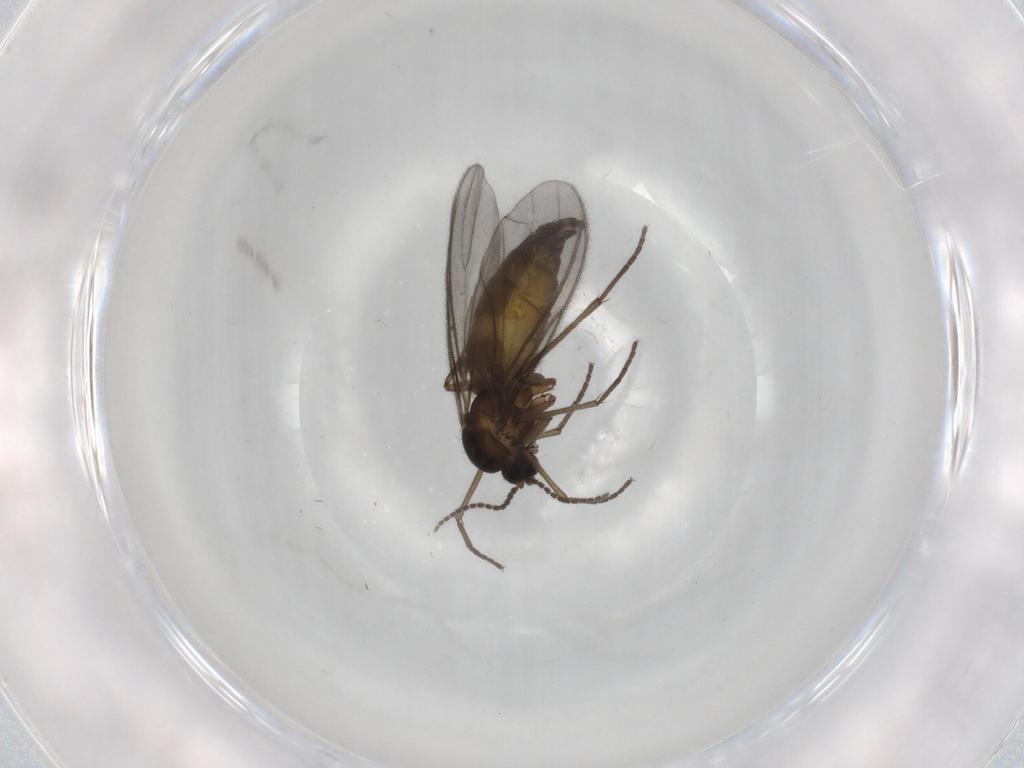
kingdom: Animalia
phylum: Arthropoda
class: Insecta
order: Diptera
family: Sciaridae
